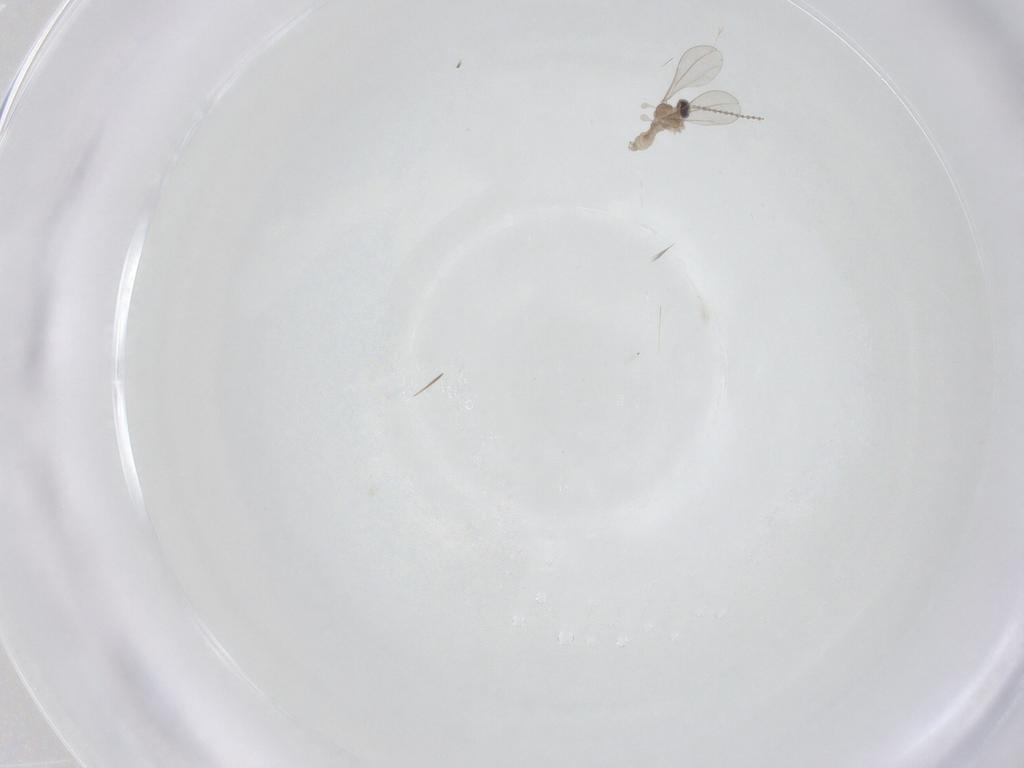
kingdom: Animalia
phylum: Arthropoda
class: Insecta
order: Diptera
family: Cecidomyiidae
